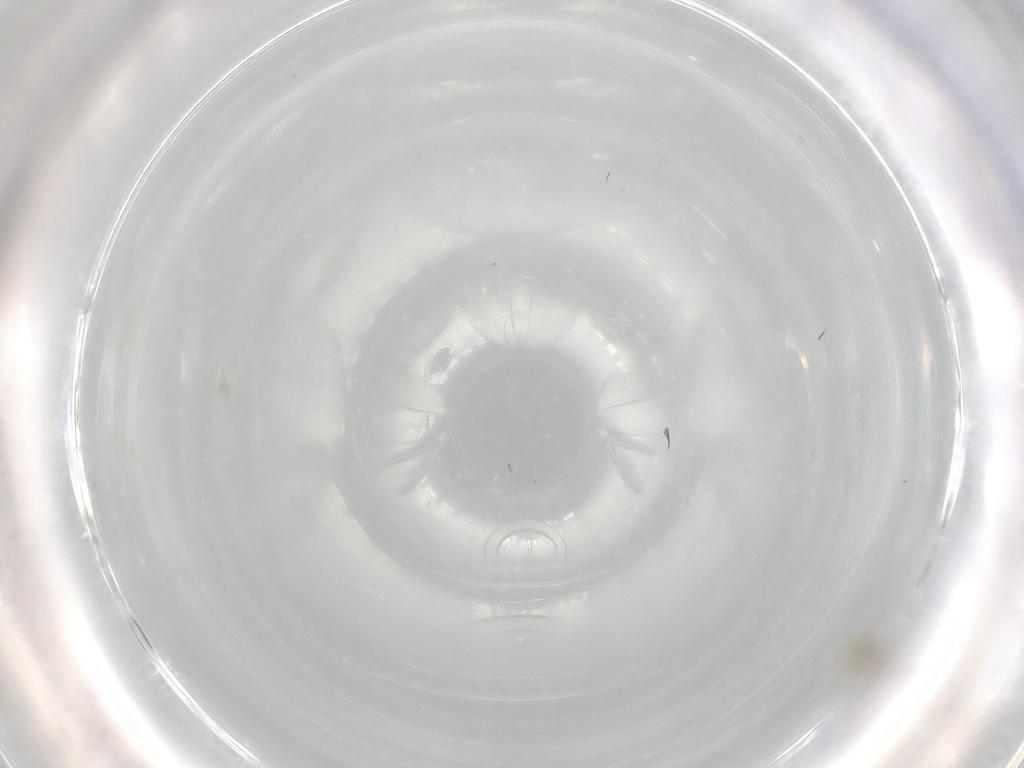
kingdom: Animalia
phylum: Arthropoda
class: Insecta
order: Hemiptera
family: Aleyrodidae
